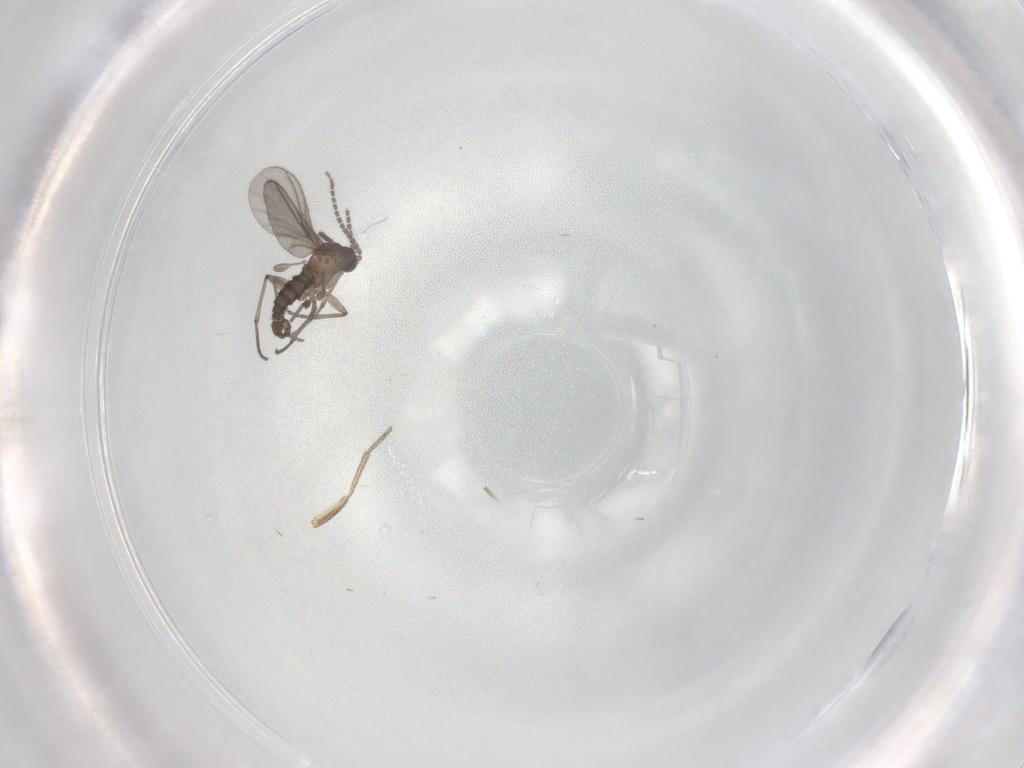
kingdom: Animalia
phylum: Arthropoda
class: Insecta
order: Diptera
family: Sciaridae
